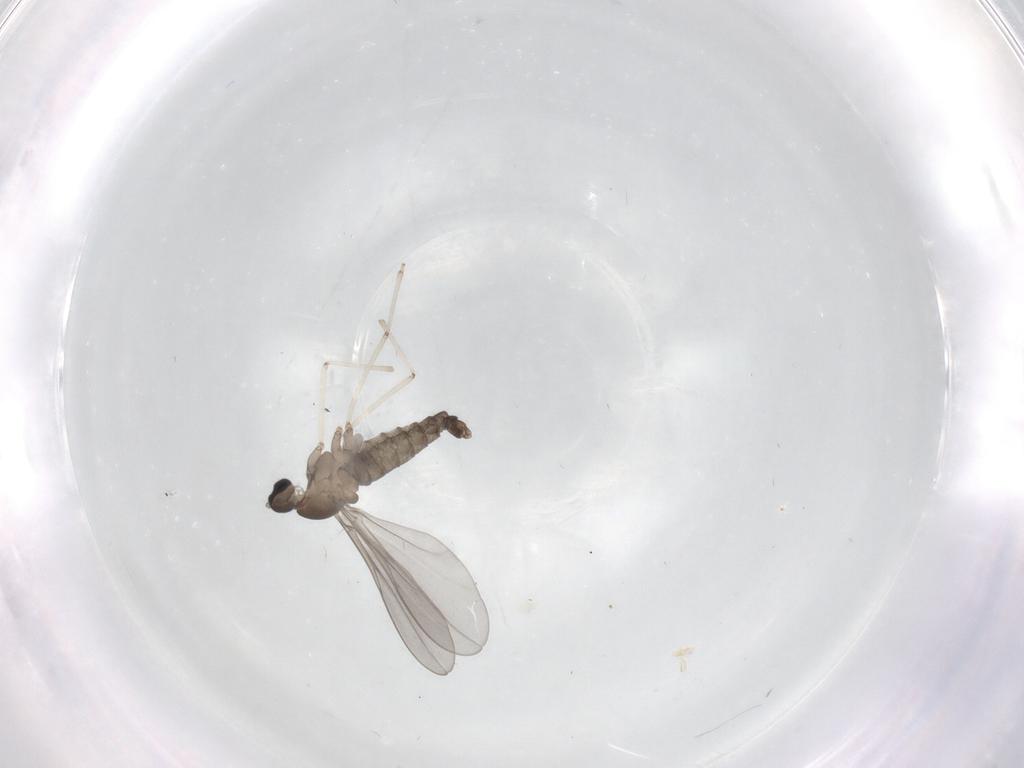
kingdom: Animalia
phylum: Arthropoda
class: Insecta
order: Diptera
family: Cecidomyiidae
